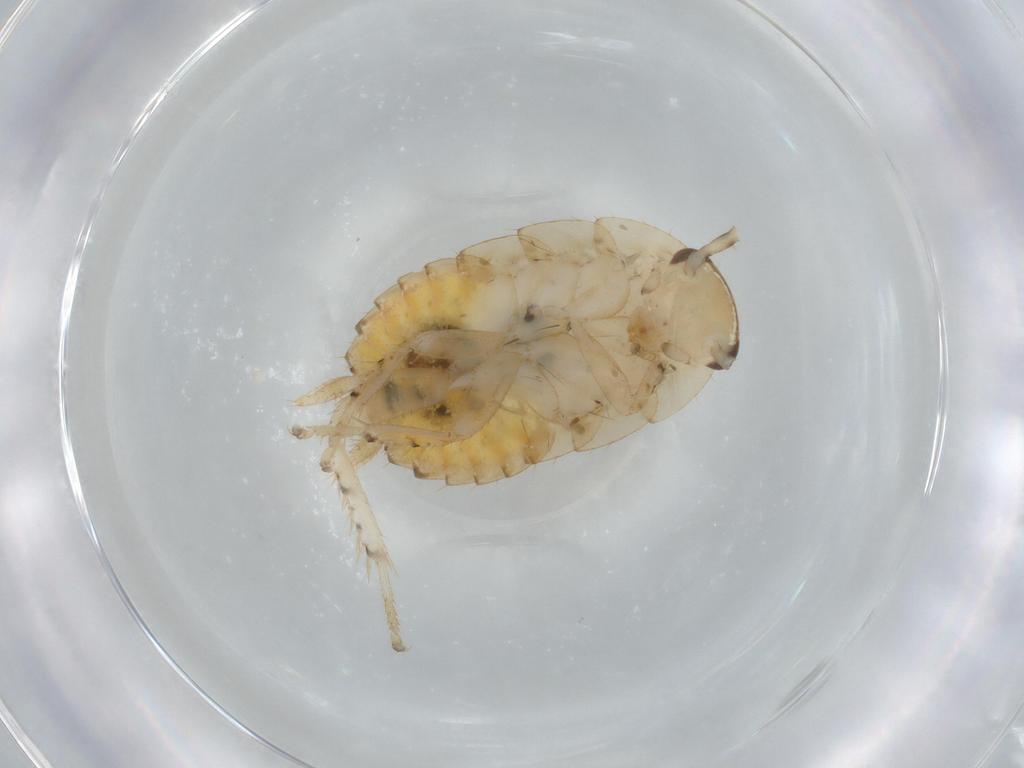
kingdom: Animalia
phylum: Arthropoda
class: Insecta
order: Blattodea
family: Ectobiidae
